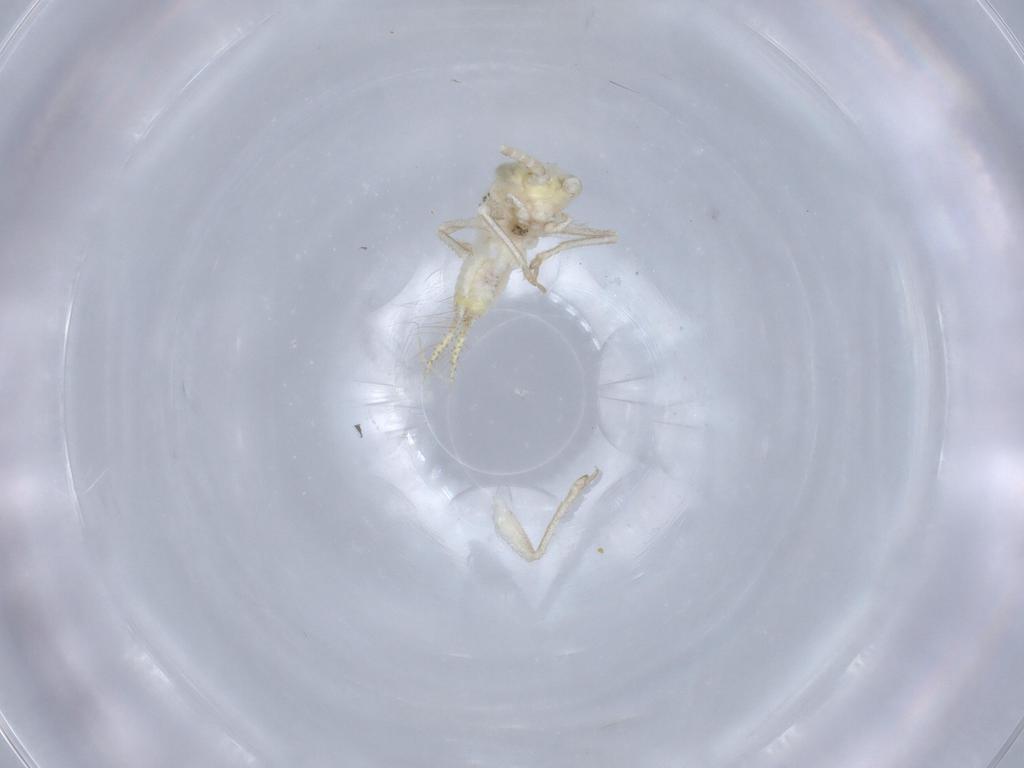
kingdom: Animalia
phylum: Arthropoda
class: Insecta
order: Orthoptera
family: Trigonidiidae
